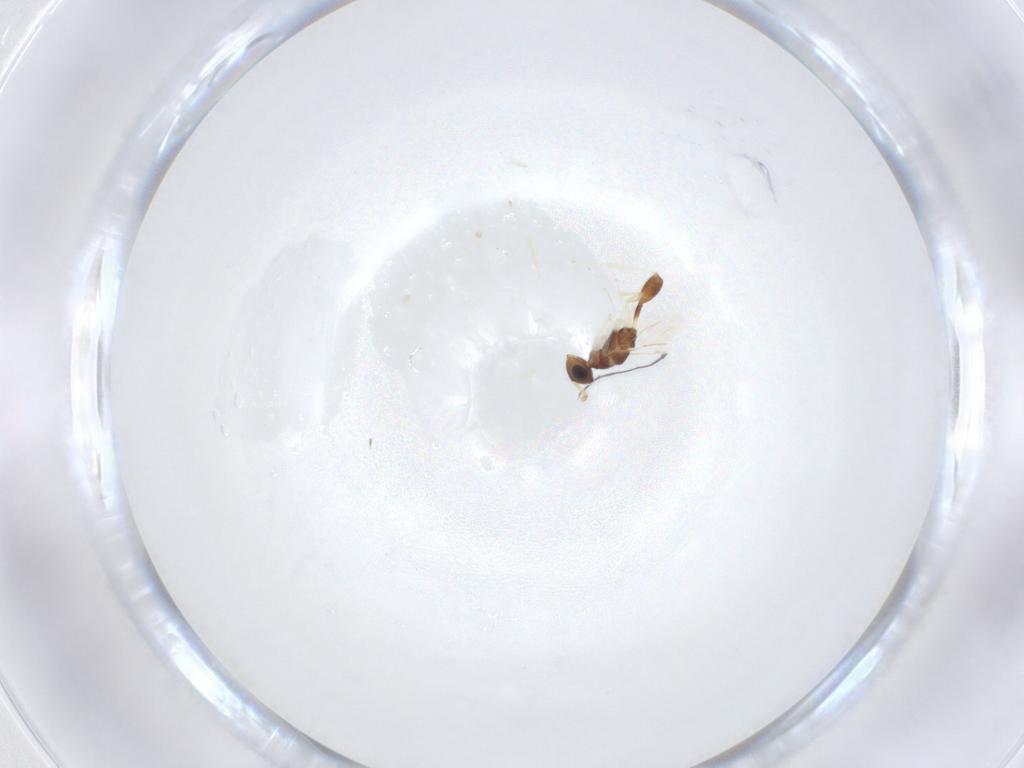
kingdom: Animalia
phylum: Arthropoda
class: Insecta
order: Hymenoptera
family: Diparidae
